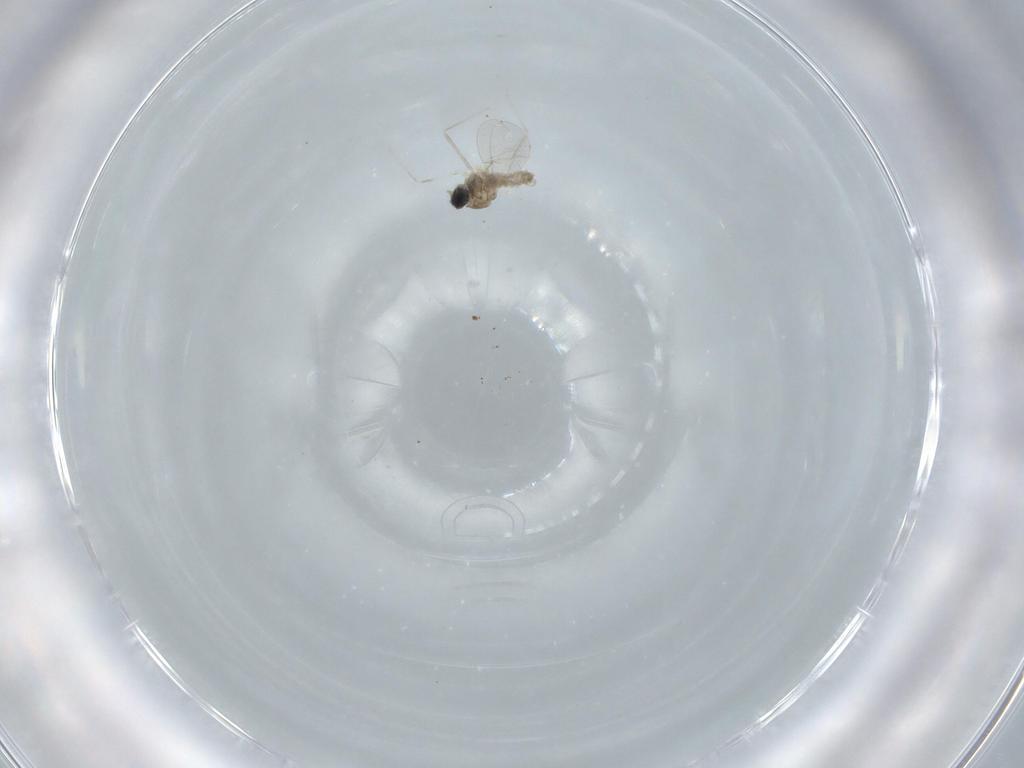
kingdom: Animalia
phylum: Arthropoda
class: Insecta
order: Diptera
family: Cecidomyiidae
